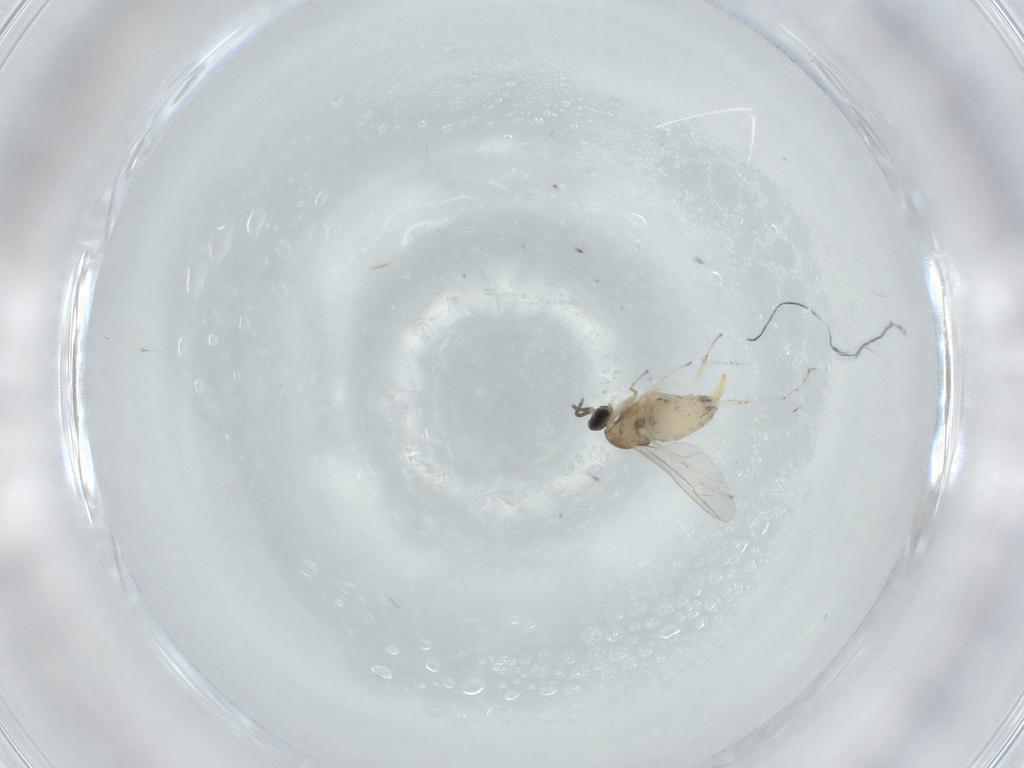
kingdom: Animalia
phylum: Arthropoda
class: Insecta
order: Diptera
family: Cecidomyiidae
